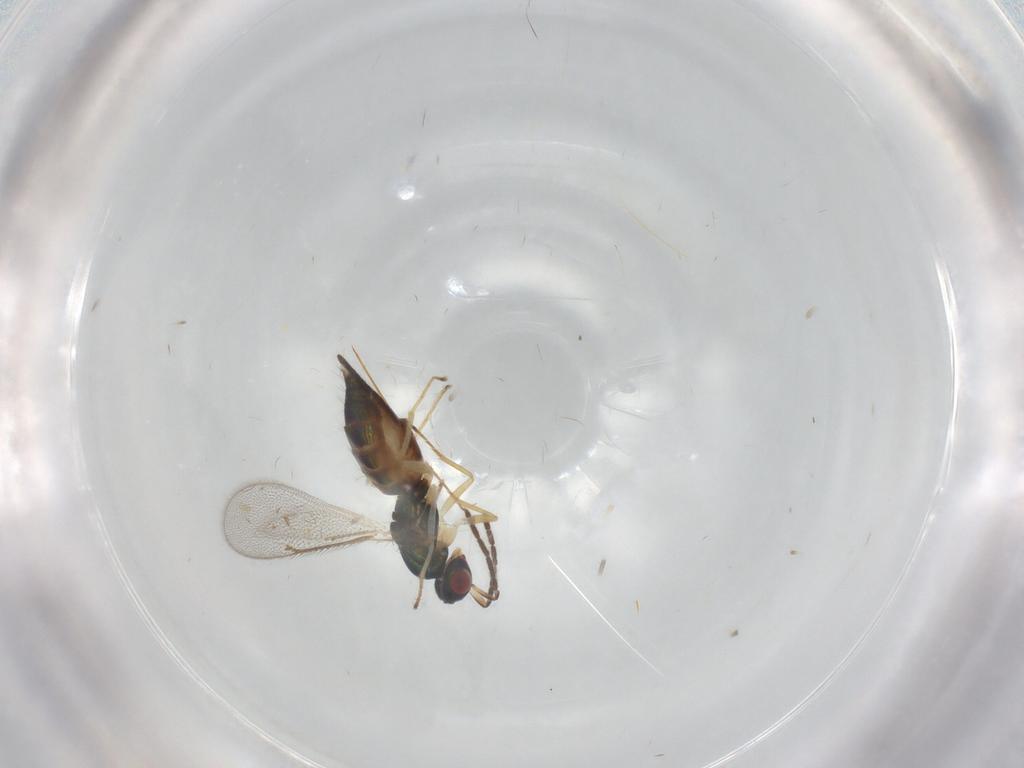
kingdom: Animalia
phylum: Arthropoda
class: Insecta
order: Hymenoptera
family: Eulophidae
